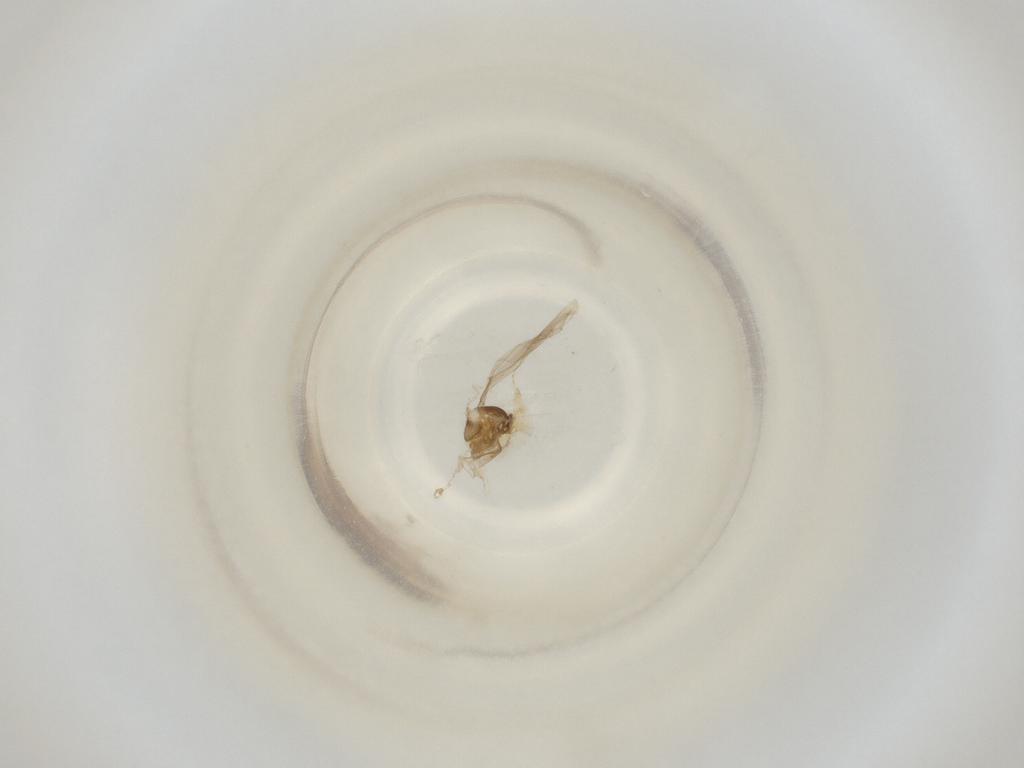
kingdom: Animalia
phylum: Arthropoda
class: Insecta
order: Diptera
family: Cecidomyiidae
